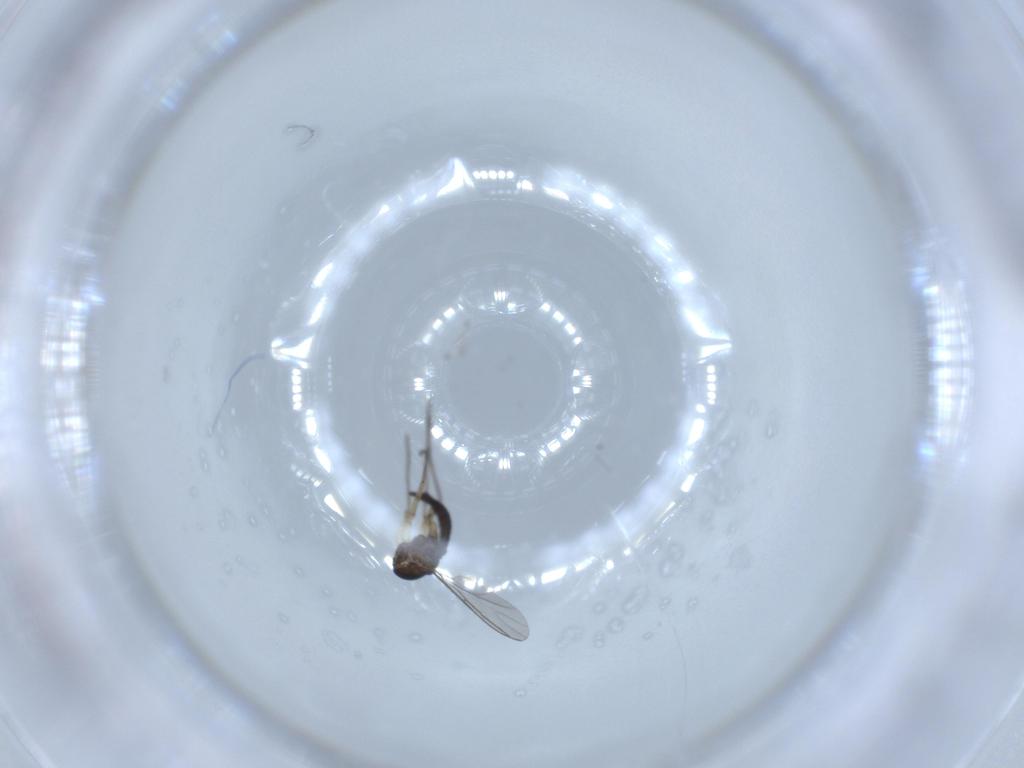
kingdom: Animalia
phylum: Arthropoda
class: Insecta
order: Diptera
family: Sciaridae
